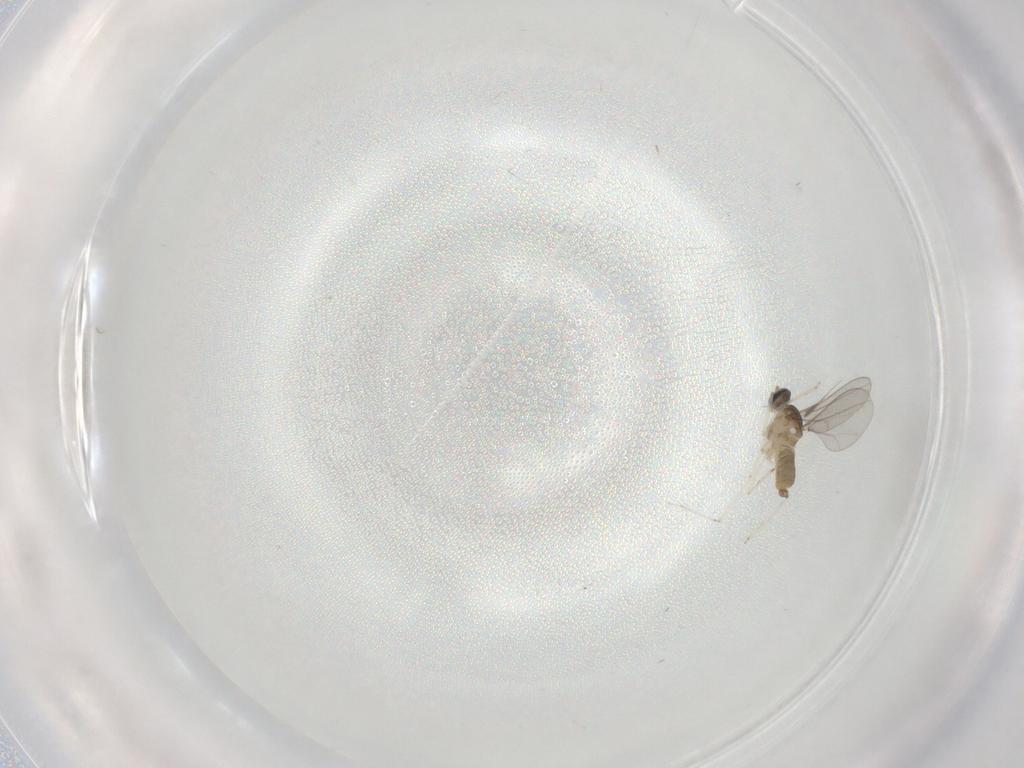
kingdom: Animalia
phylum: Arthropoda
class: Insecta
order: Diptera
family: Cecidomyiidae
